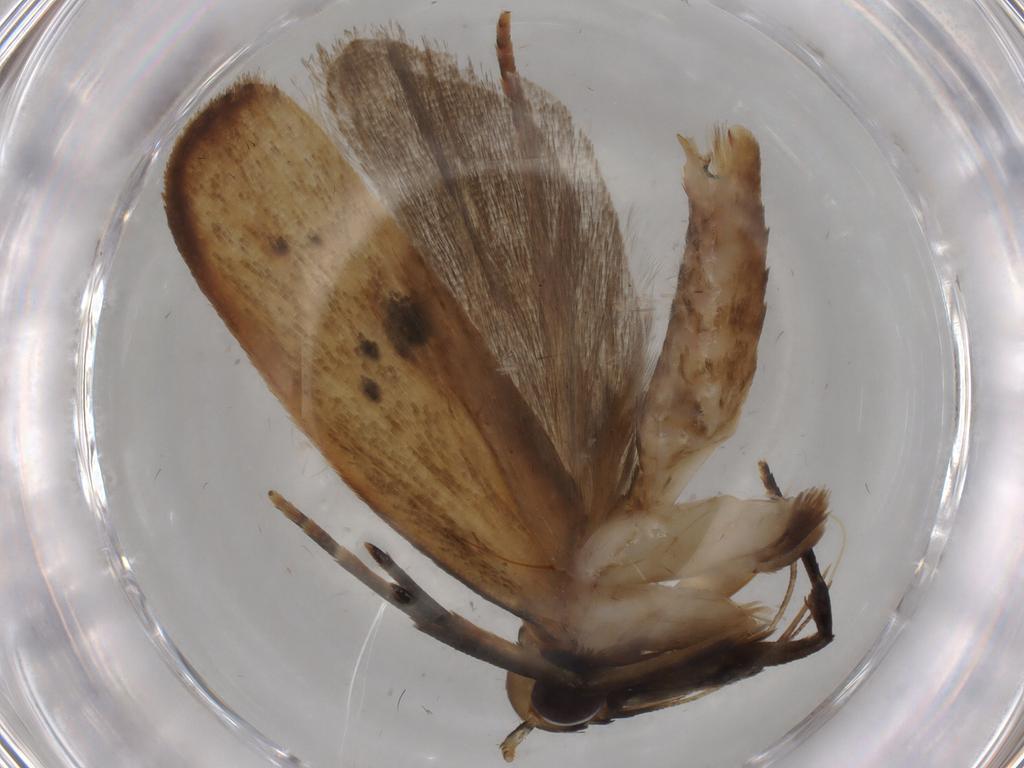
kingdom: Animalia
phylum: Arthropoda
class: Insecta
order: Lepidoptera
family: Gelechiidae
